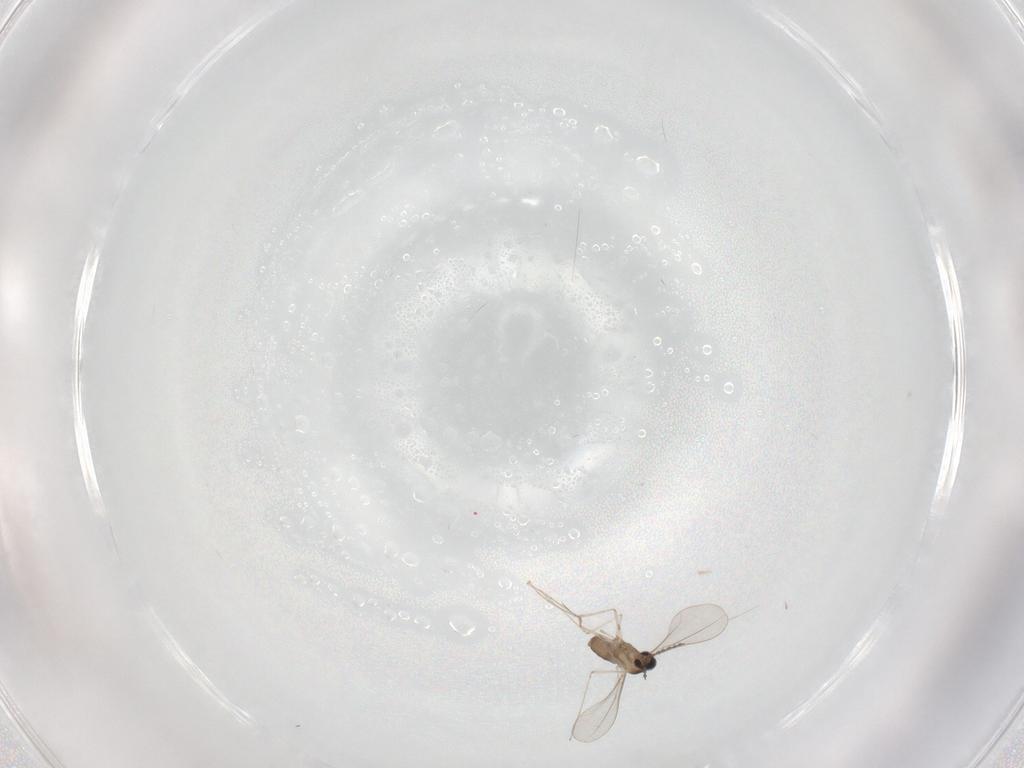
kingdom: Animalia
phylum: Arthropoda
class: Insecta
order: Diptera
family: Cecidomyiidae
